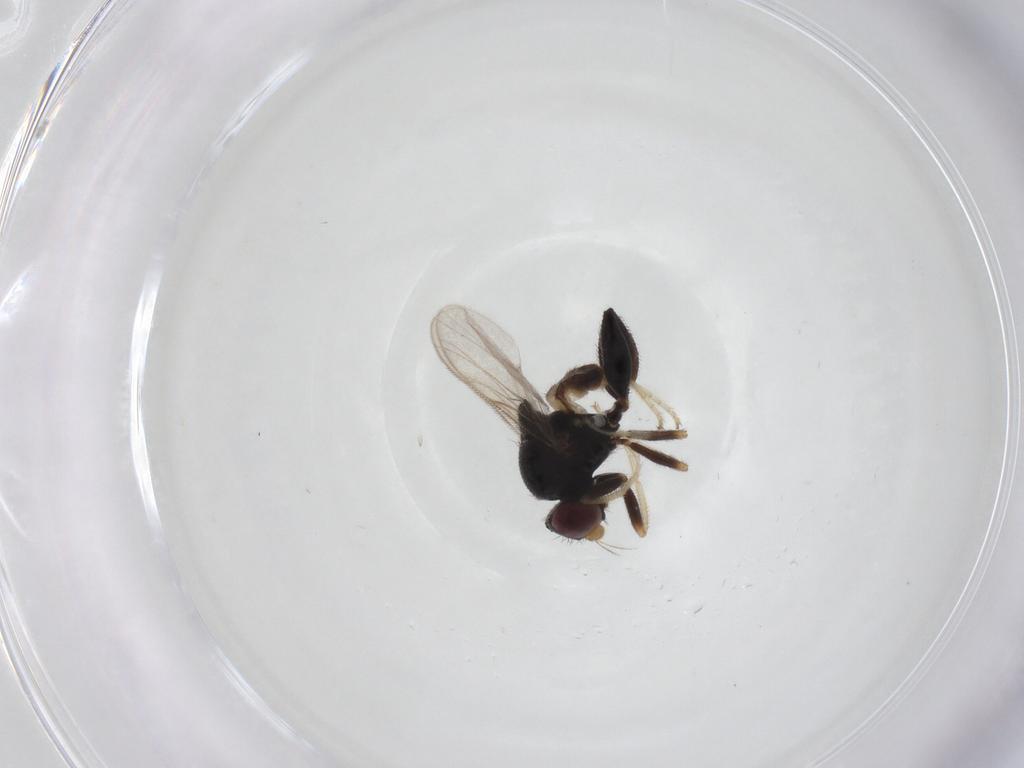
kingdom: Animalia
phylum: Arthropoda
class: Insecta
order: Diptera
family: Chloropidae
